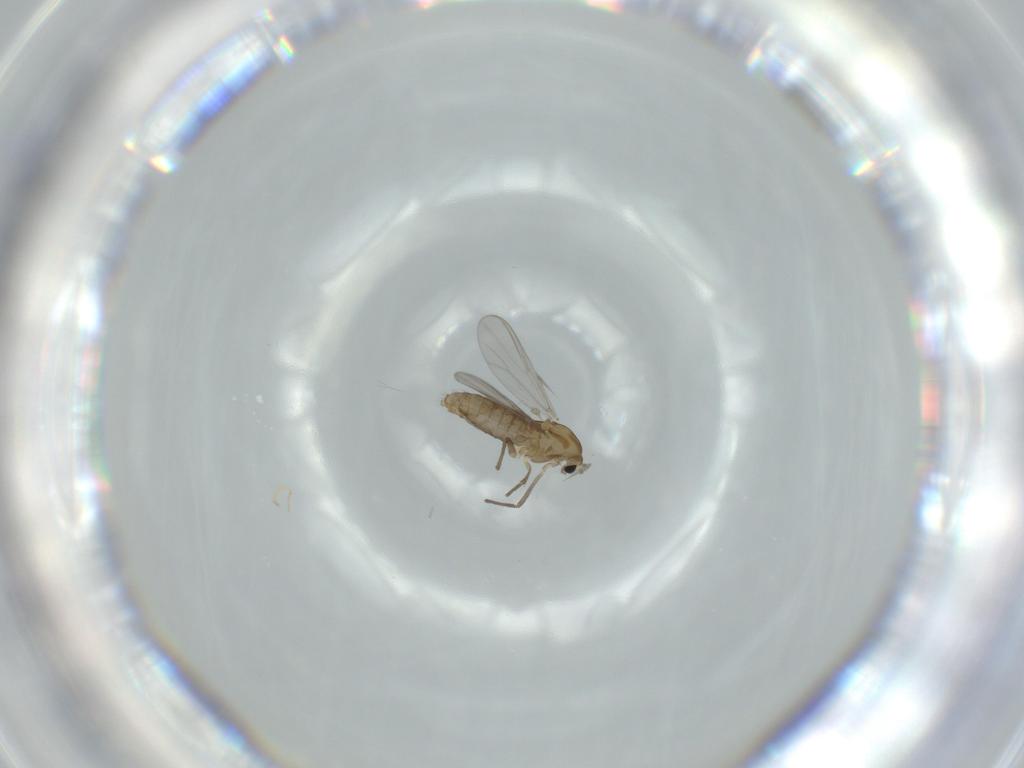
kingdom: Animalia
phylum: Arthropoda
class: Insecta
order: Diptera
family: Chironomidae
